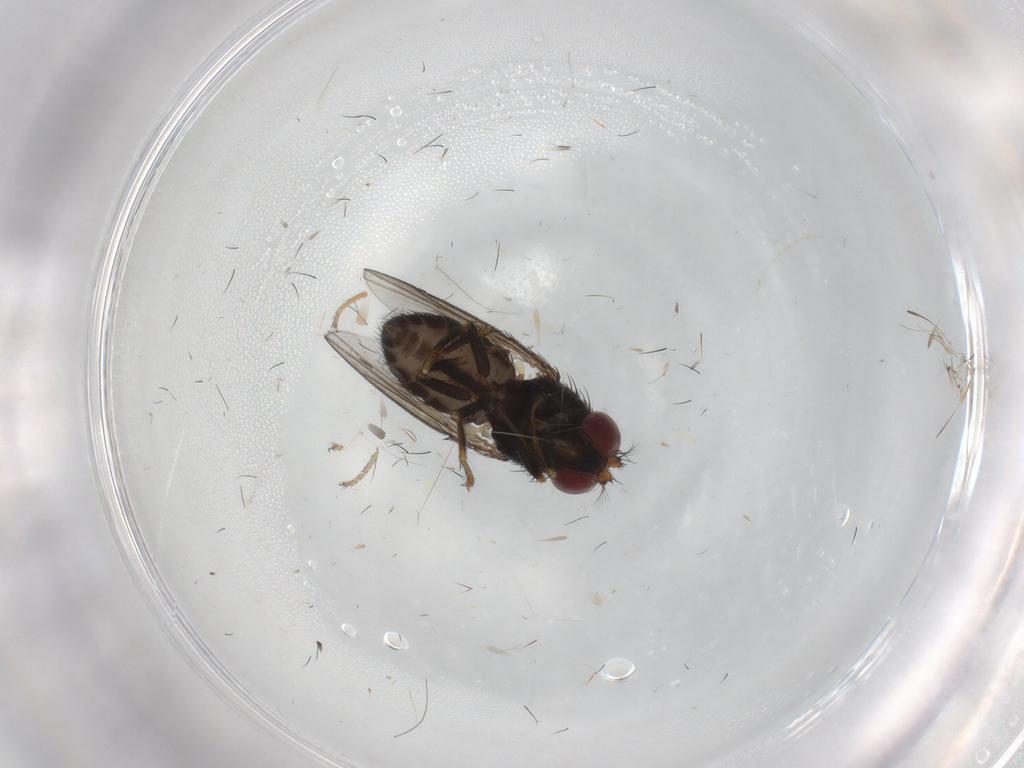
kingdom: Animalia
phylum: Arthropoda
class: Insecta
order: Diptera
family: Ephydridae
